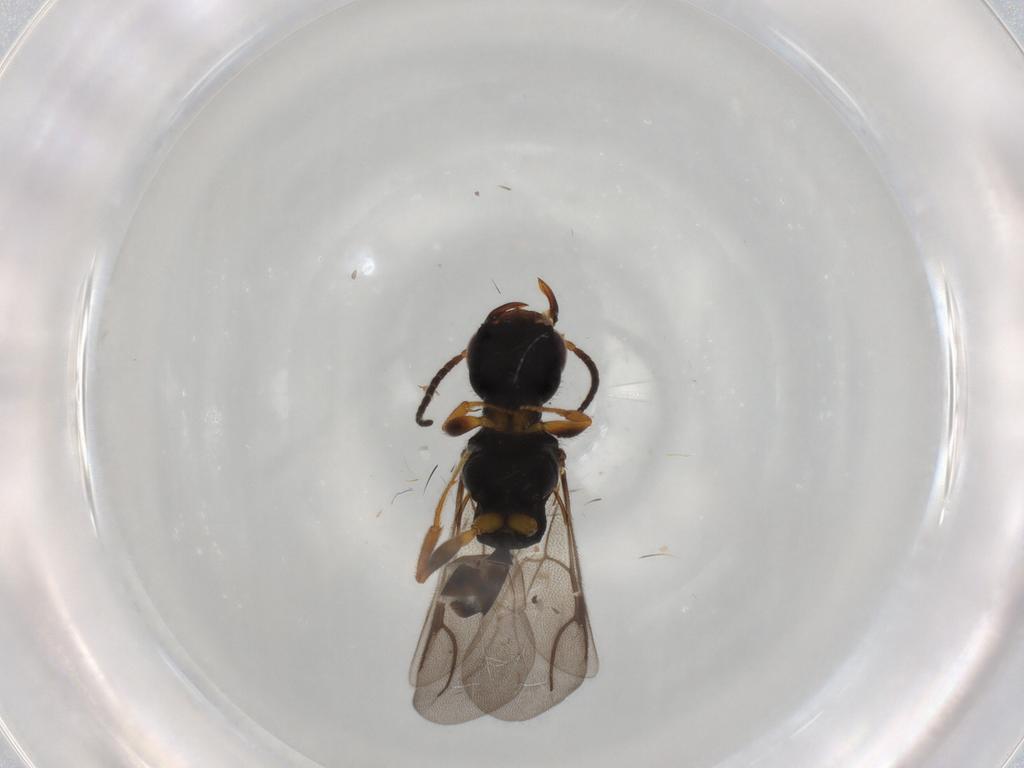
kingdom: Animalia
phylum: Arthropoda
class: Insecta
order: Hymenoptera
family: Bethylidae
